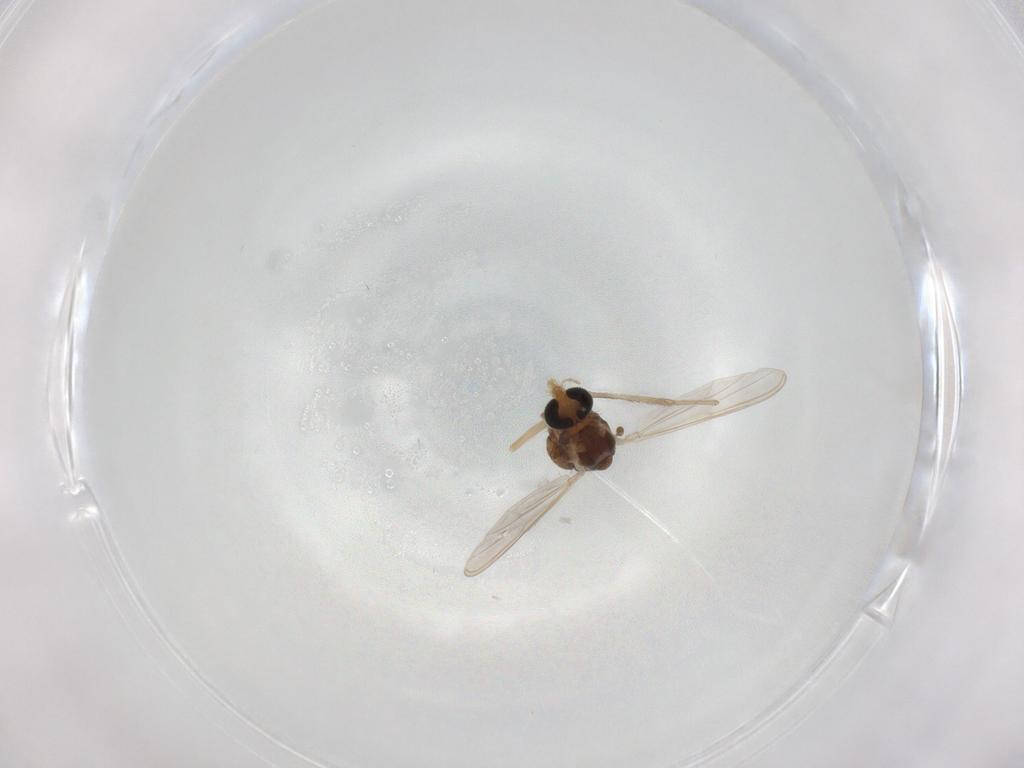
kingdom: Animalia
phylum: Arthropoda
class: Insecta
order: Diptera
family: Chironomidae
